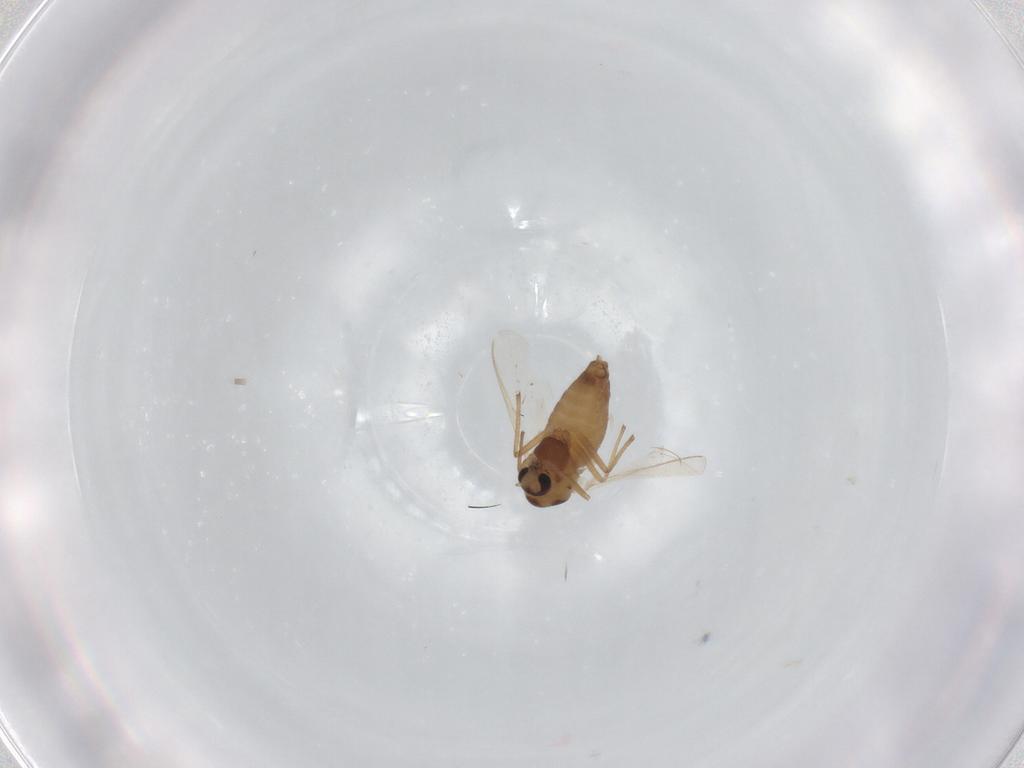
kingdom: Animalia
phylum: Arthropoda
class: Insecta
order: Diptera
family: Chironomidae
